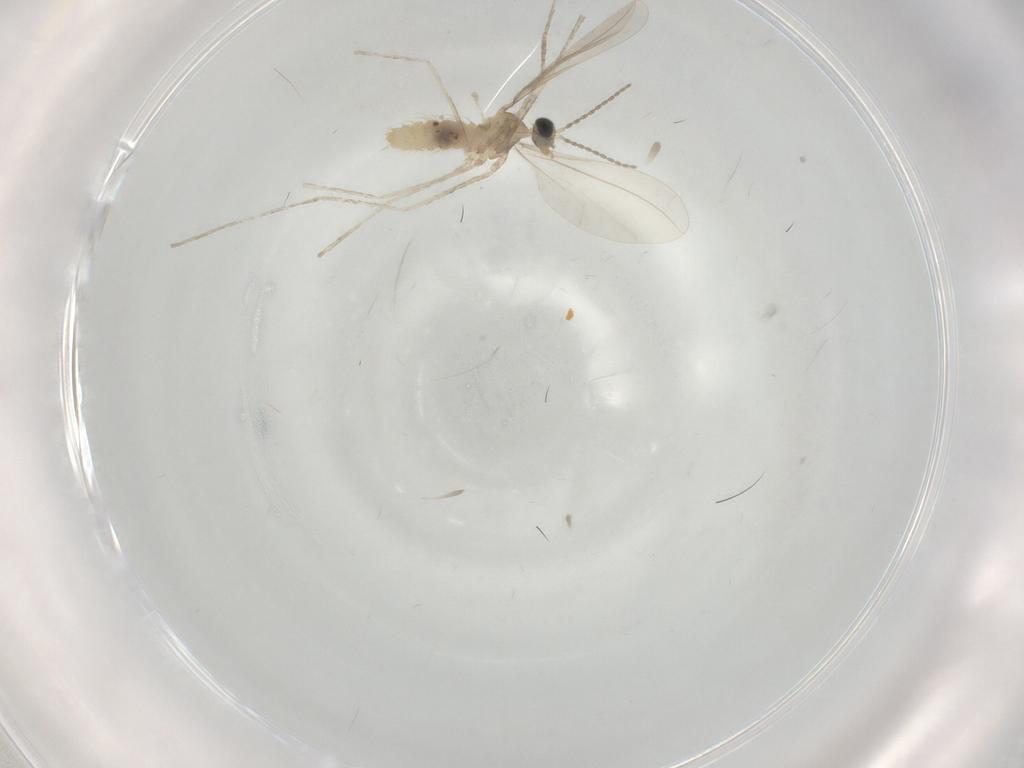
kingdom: Animalia
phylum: Arthropoda
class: Insecta
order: Diptera
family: Cecidomyiidae
